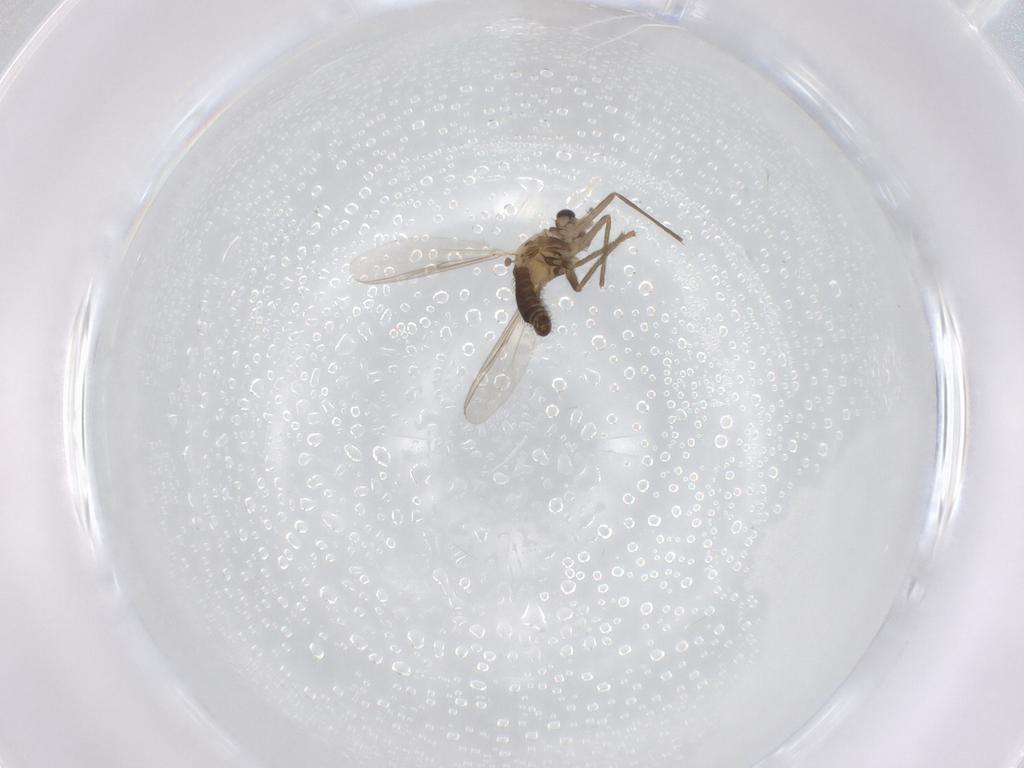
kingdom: Animalia
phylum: Arthropoda
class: Insecta
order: Diptera
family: Chironomidae
